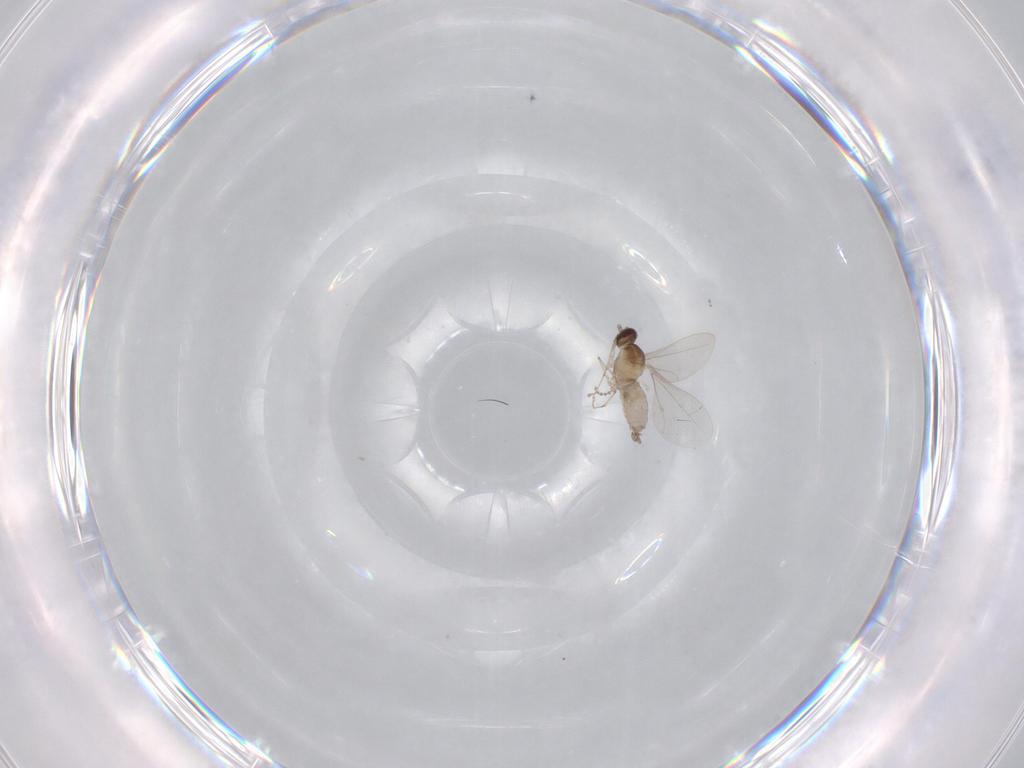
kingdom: Animalia
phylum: Arthropoda
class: Insecta
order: Diptera
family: Cecidomyiidae
